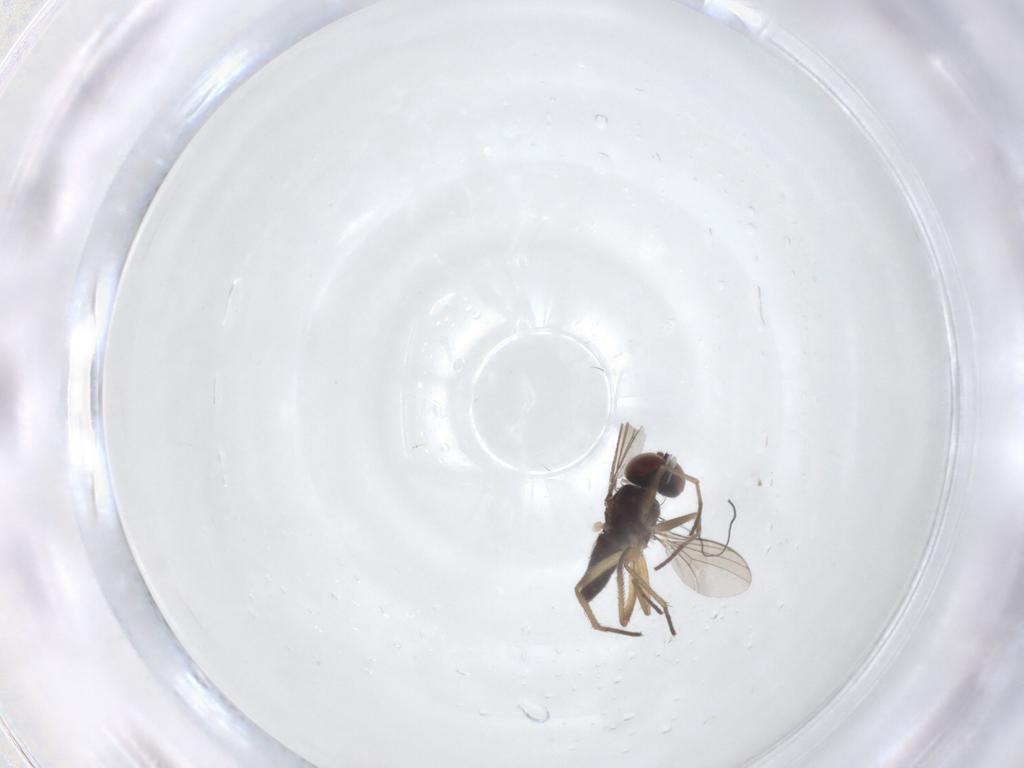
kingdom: Animalia
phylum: Arthropoda
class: Insecta
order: Diptera
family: Dolichopodidae
